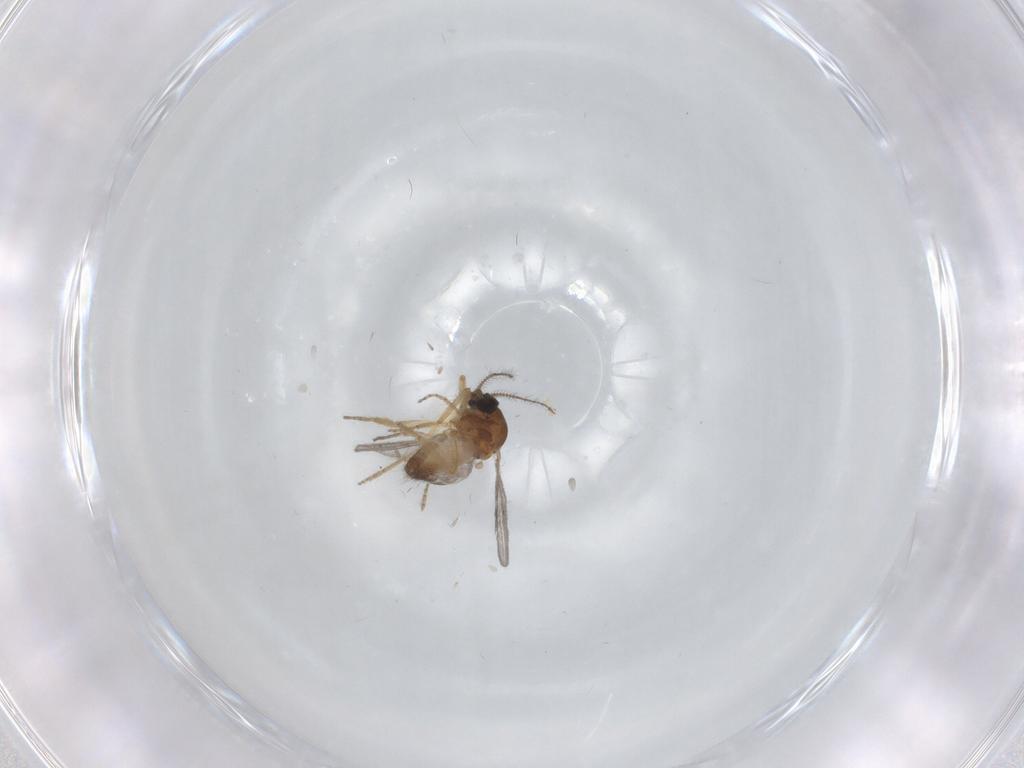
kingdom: Animalia
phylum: Arthropoda
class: Insecta
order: Diptera
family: Ceratopogonidae
